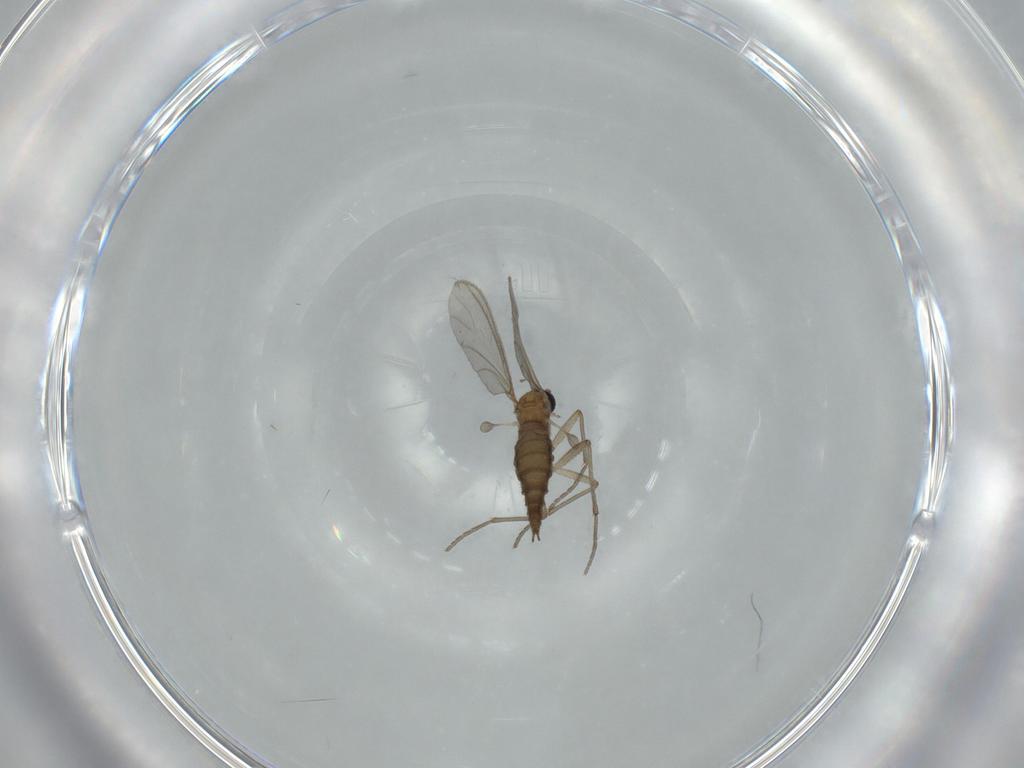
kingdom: Animalia
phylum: Arthropoda
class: Insecta
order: Diptera
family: Sciaridae
